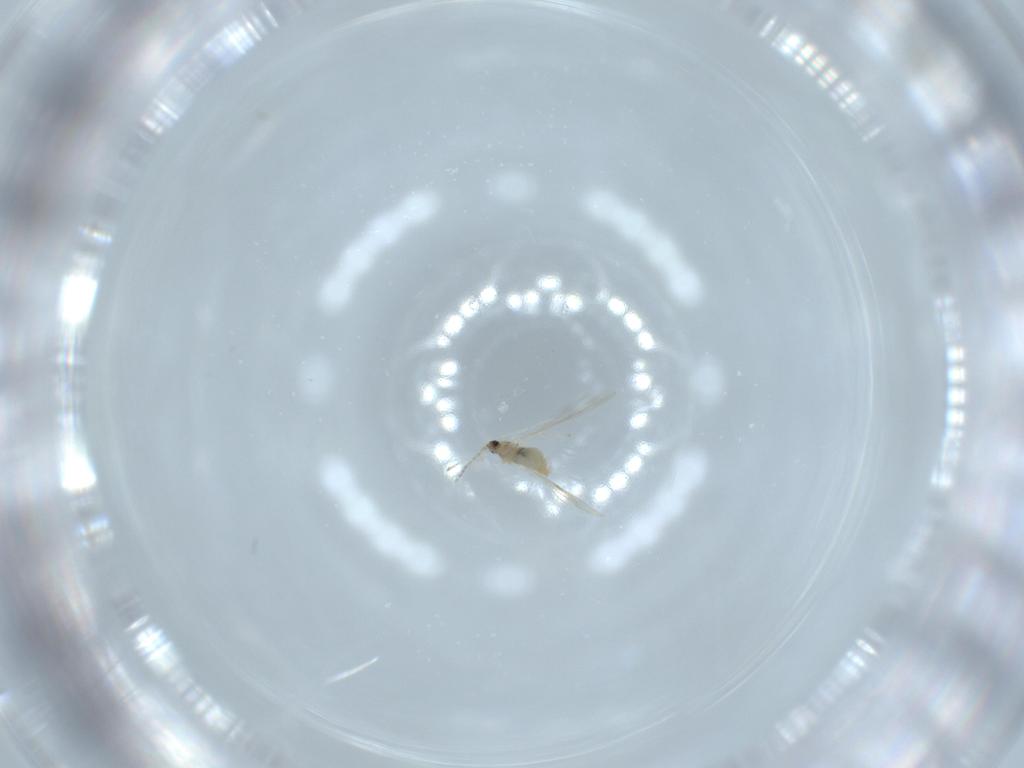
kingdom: Animalia
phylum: Arthropoda
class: Insecta
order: Diptera
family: Cecidomyiidae
